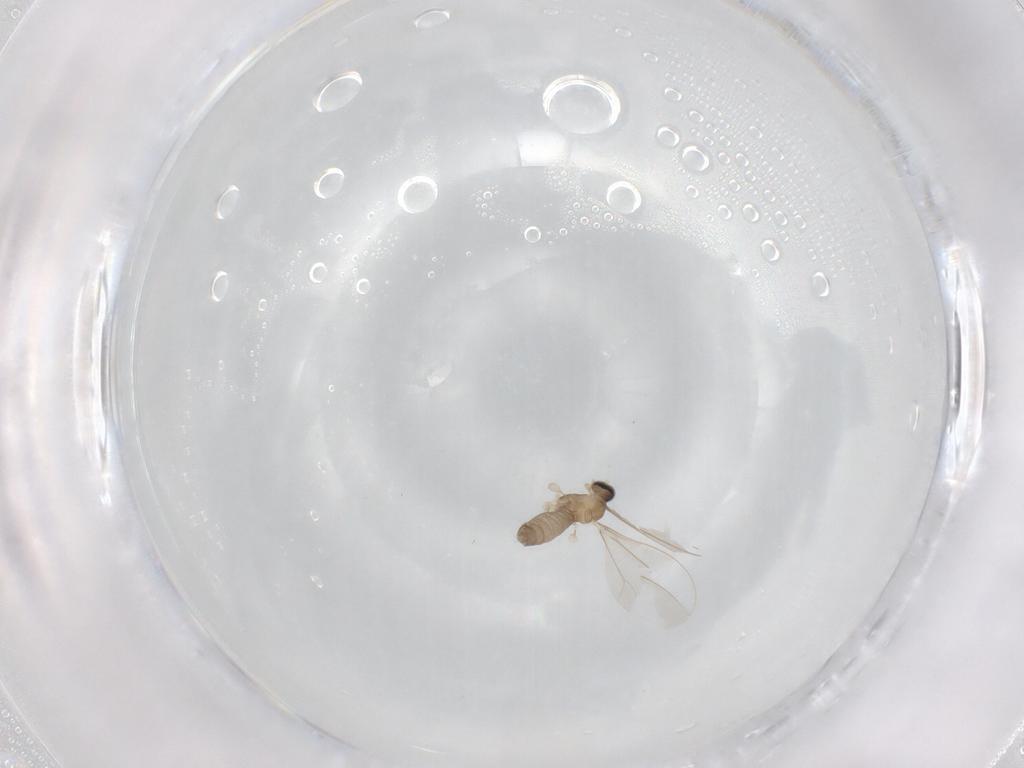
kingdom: Animalia
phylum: Arthropoda
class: Insecta
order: Diptera
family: Cecidomyiidae
